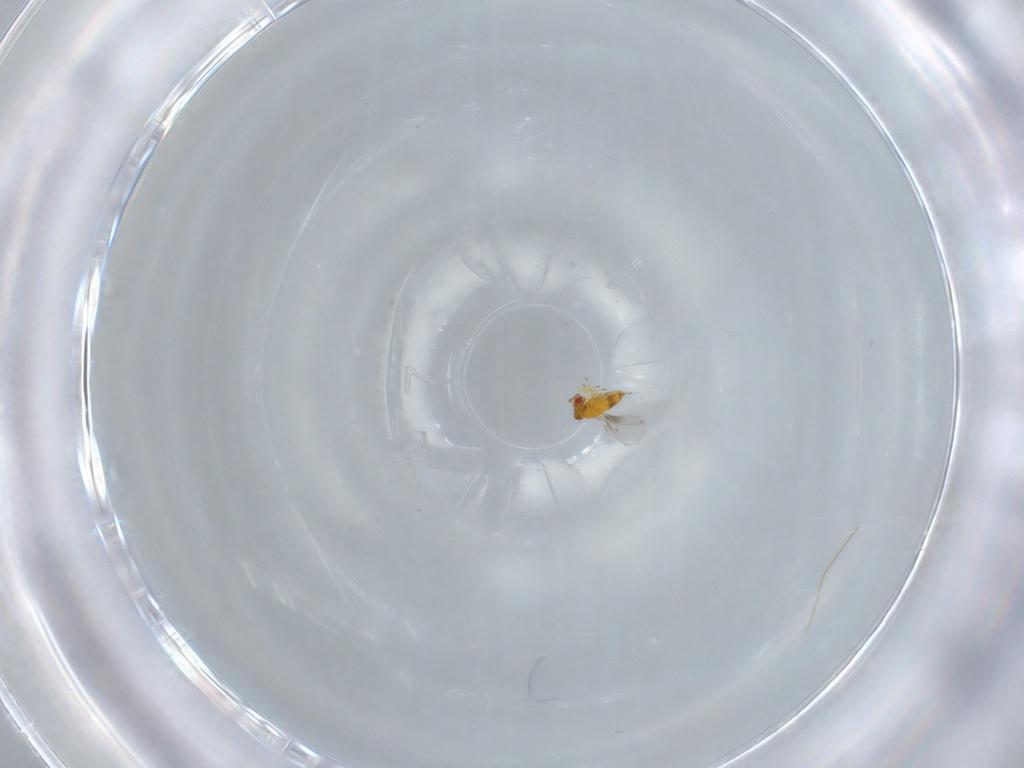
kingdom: Animalia
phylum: Arthropoda
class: Insecta
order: Hymenoptera
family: Trichogrammatidae
